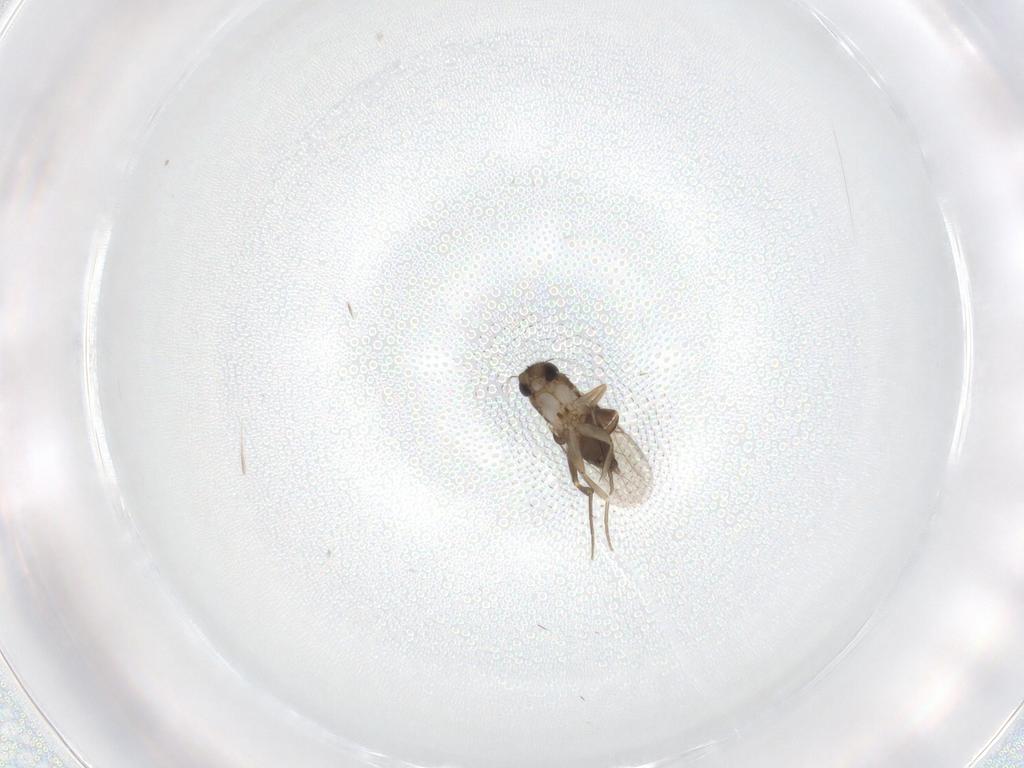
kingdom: Animalia
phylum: Arthropoda
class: Insecta
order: Diptera
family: Phoridae
